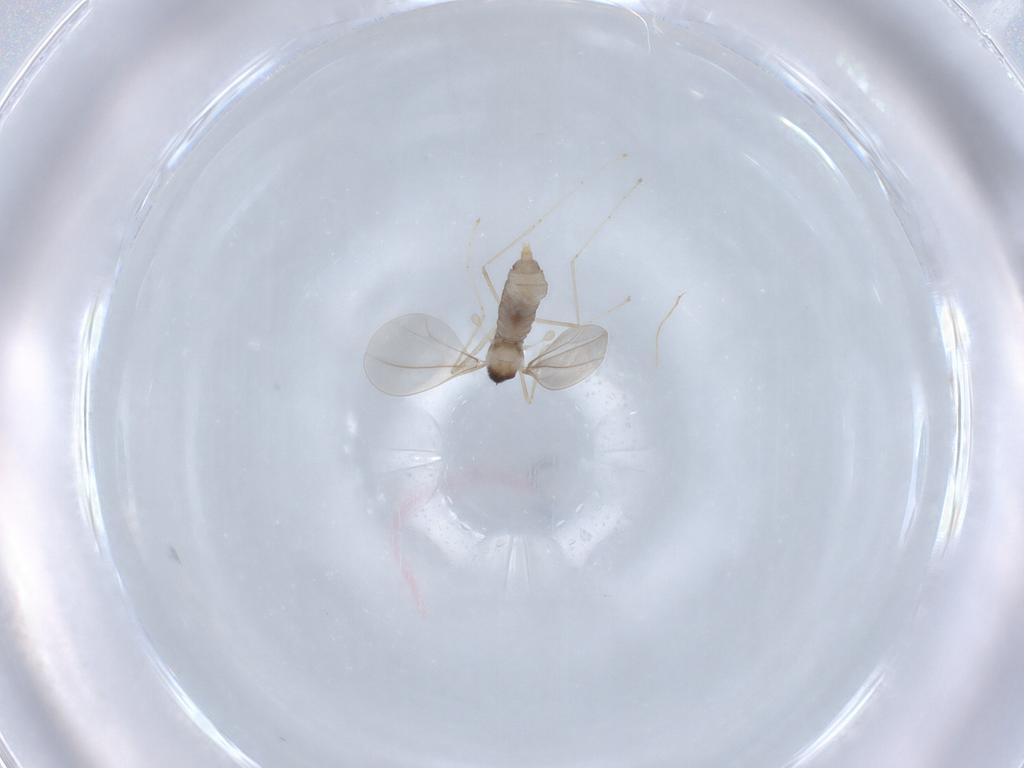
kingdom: Animalia
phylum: Arthropoda
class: Insecta
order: Diptera
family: Cecidomyiidae
